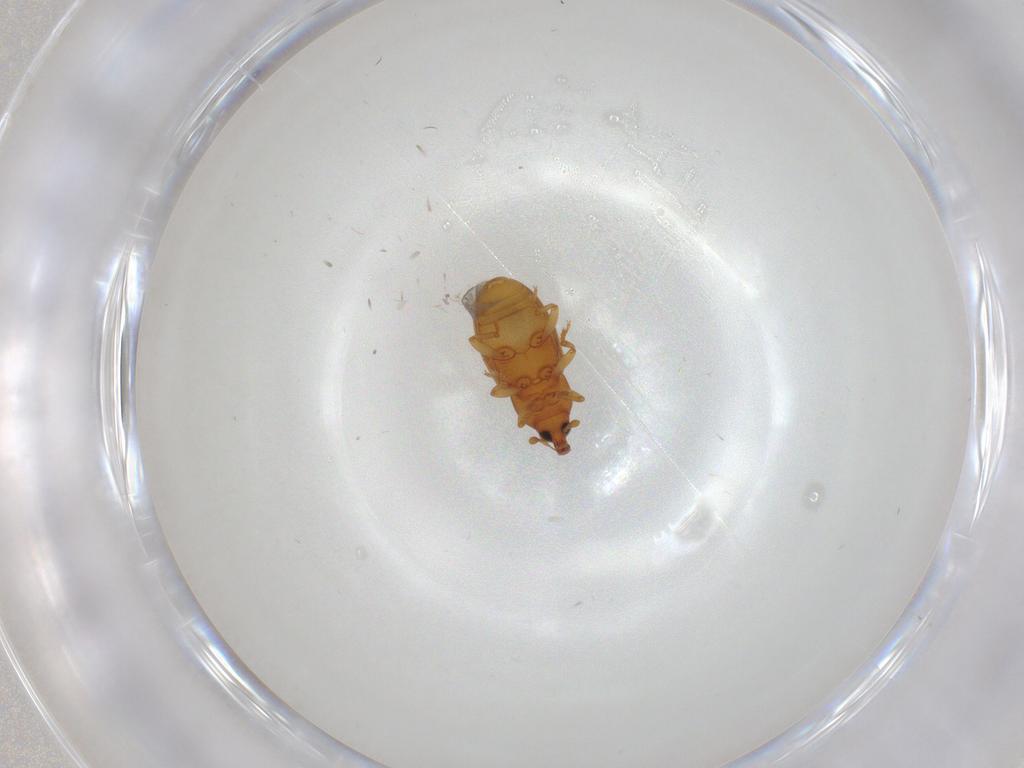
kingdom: Animalia
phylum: Arthropoda
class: Insecta
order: Coleoptera
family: Curculionidae
